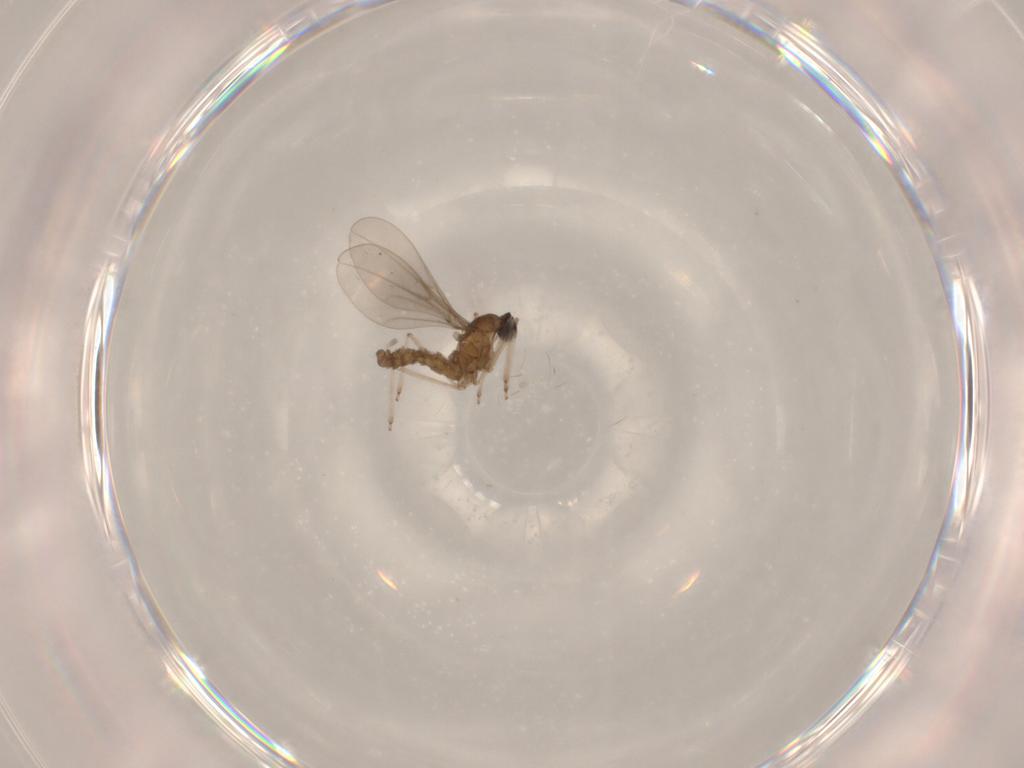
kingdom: Animalia
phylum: Arthropoda
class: Insecta
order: Diptera
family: Cecidomyiidae
